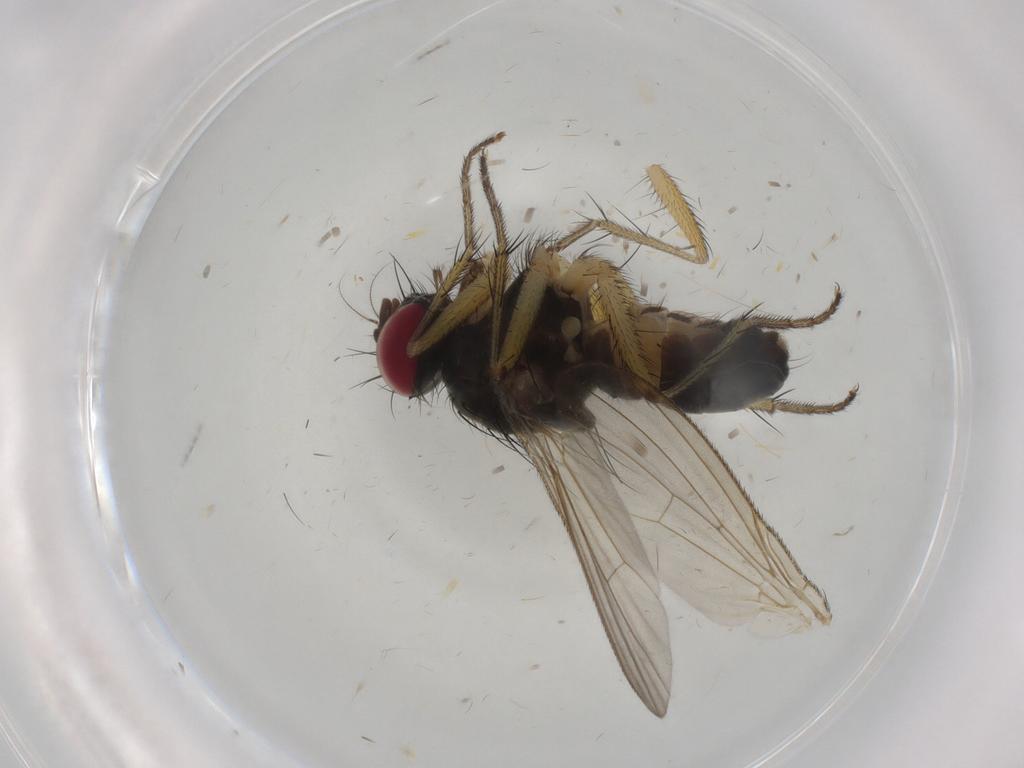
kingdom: Animalia
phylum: Arthropoda
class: Insecta
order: Diptera
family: Muscidae
